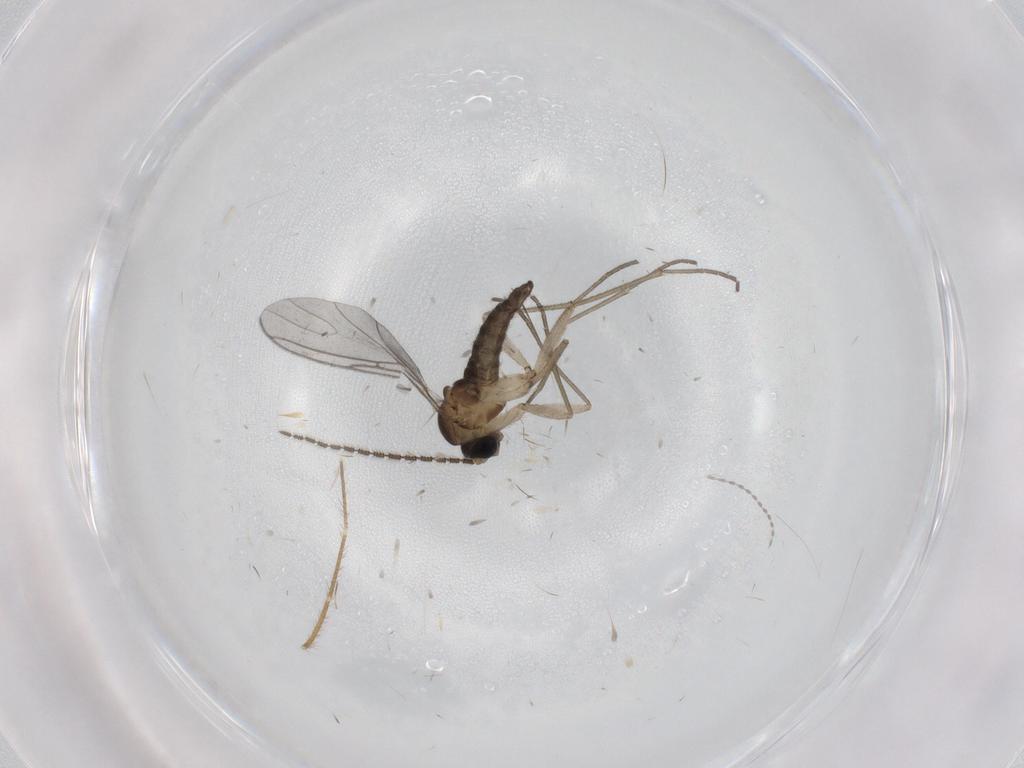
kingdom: Animalia
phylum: Arthropoda
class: Insecta
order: Diptera
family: Cecidomyiidae
